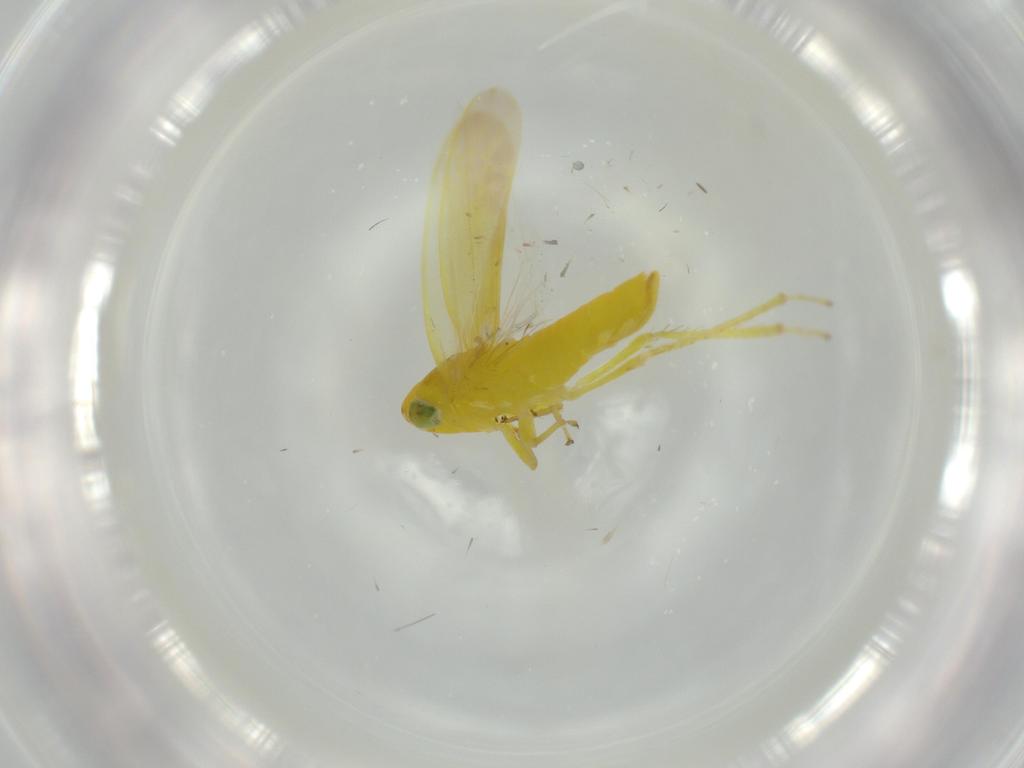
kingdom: Animalia
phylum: Arthropoda
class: Insecta
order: Hemiptera
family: Cicadellidae
